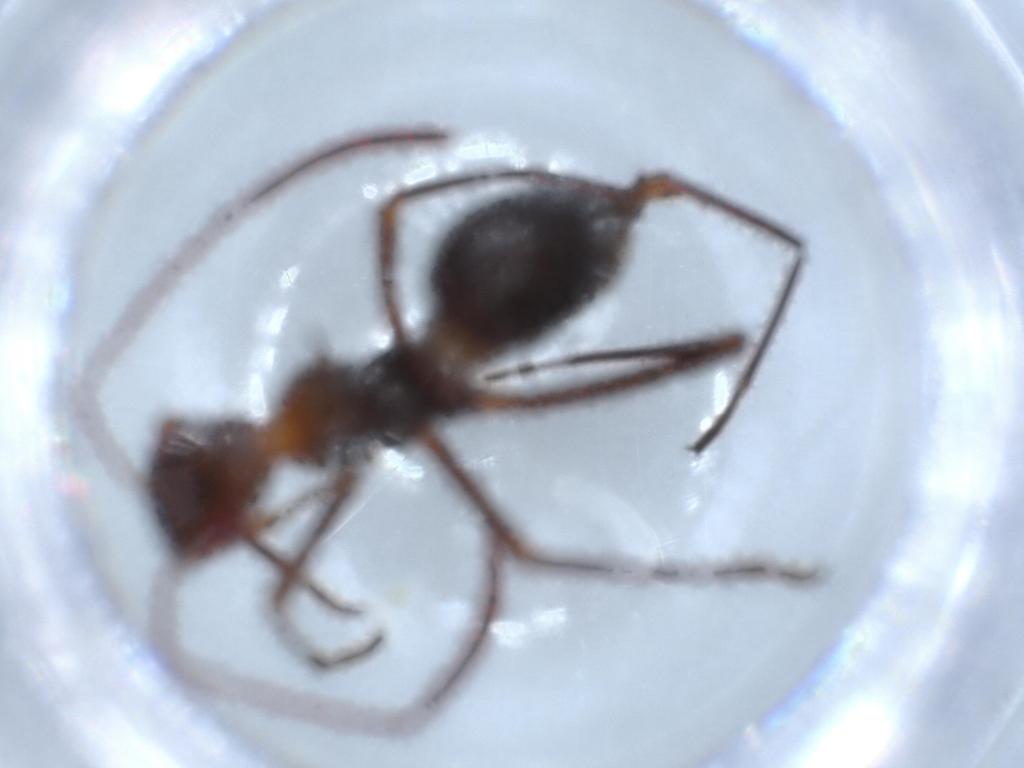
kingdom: Animalia
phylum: Arthropoda
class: Insecta
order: Hemiptera
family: Alydidae
